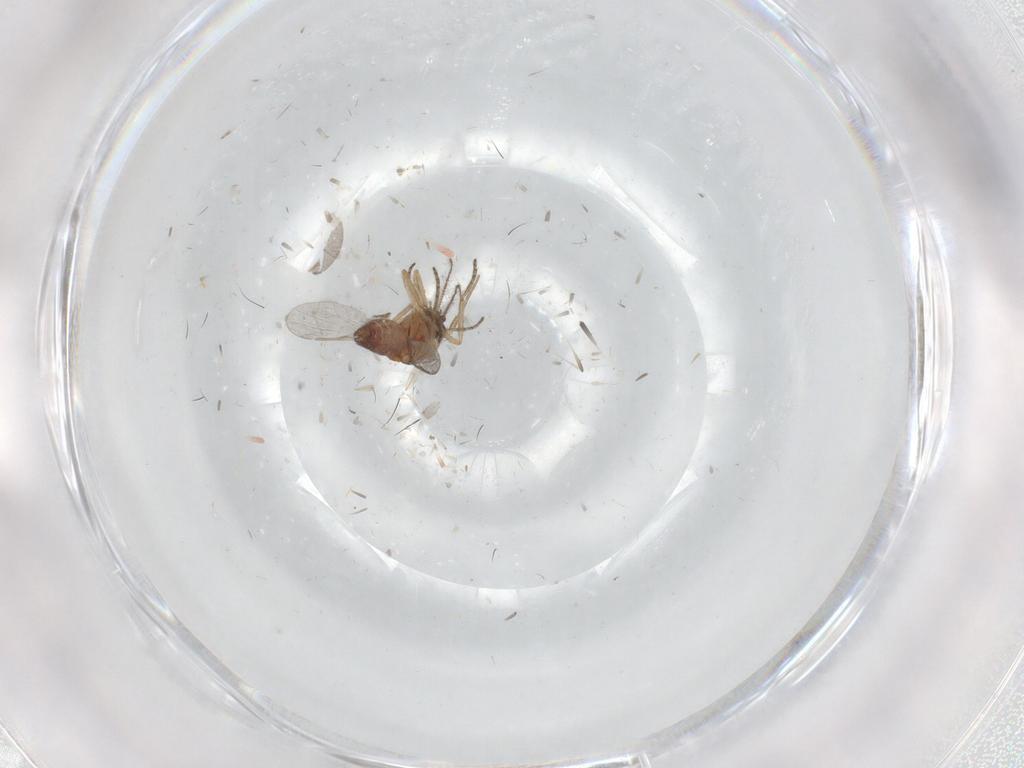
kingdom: Animalia
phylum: Arthropoda
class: Insecta
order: Diptera
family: Ceratopogonidae
